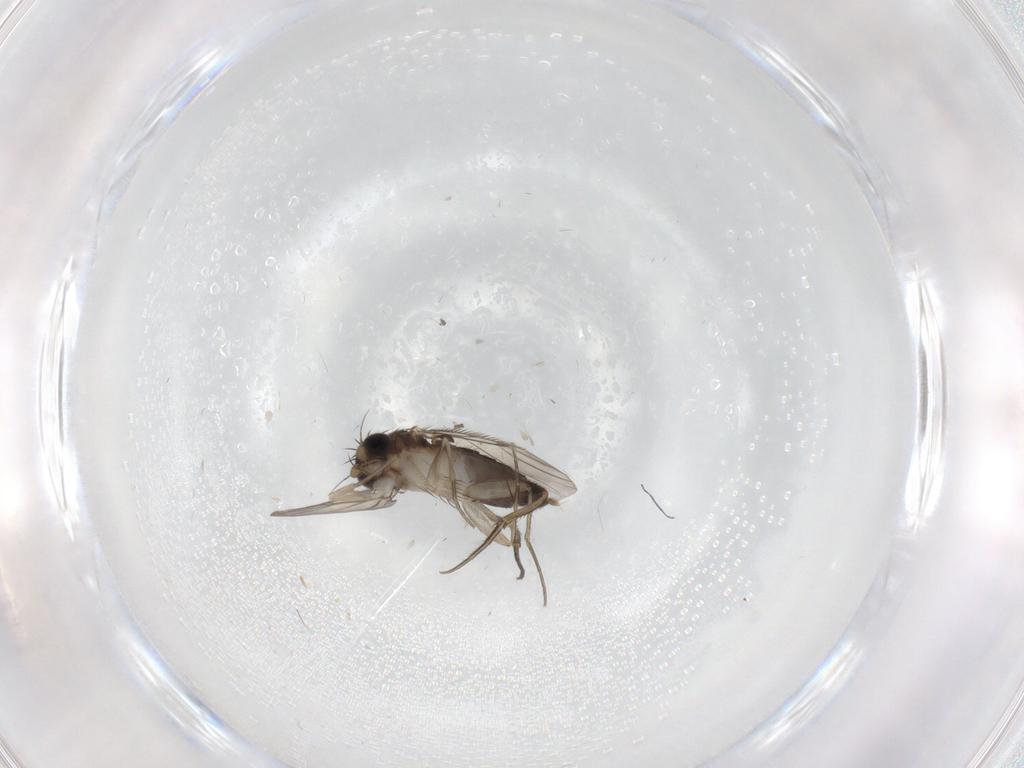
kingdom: Animalia
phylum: Arthropoda
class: Insecta
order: Diptera
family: Phoridae
